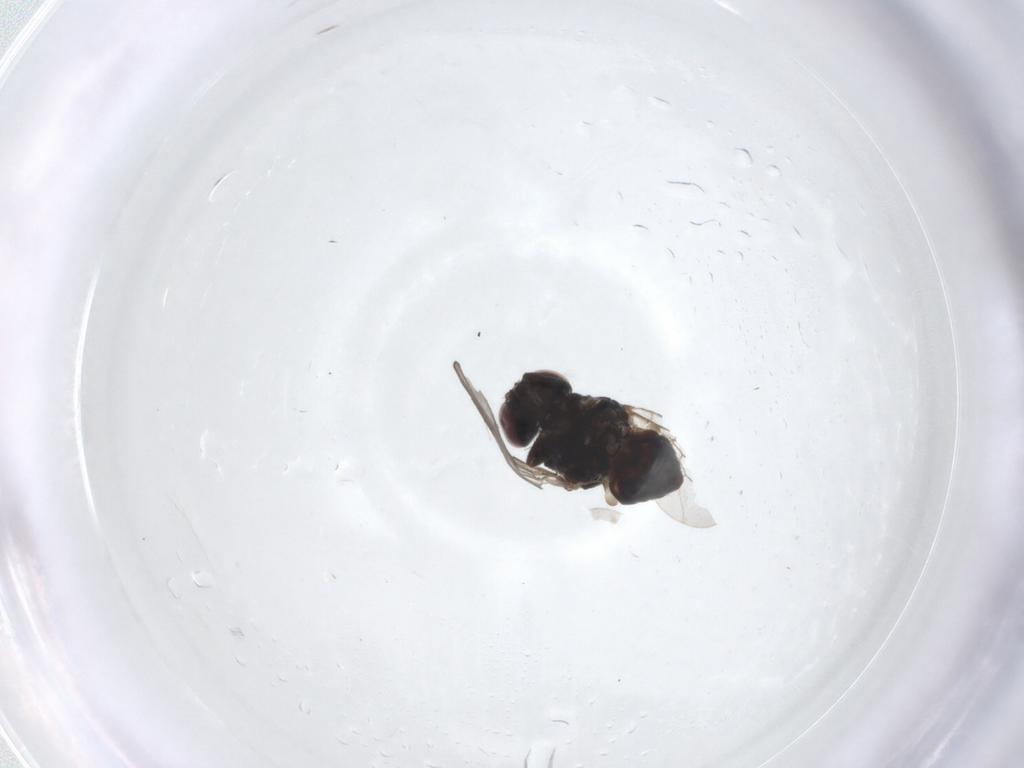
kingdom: Animalia
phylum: Arthropoda
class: Insecta
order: Diptera
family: Chloropidae
